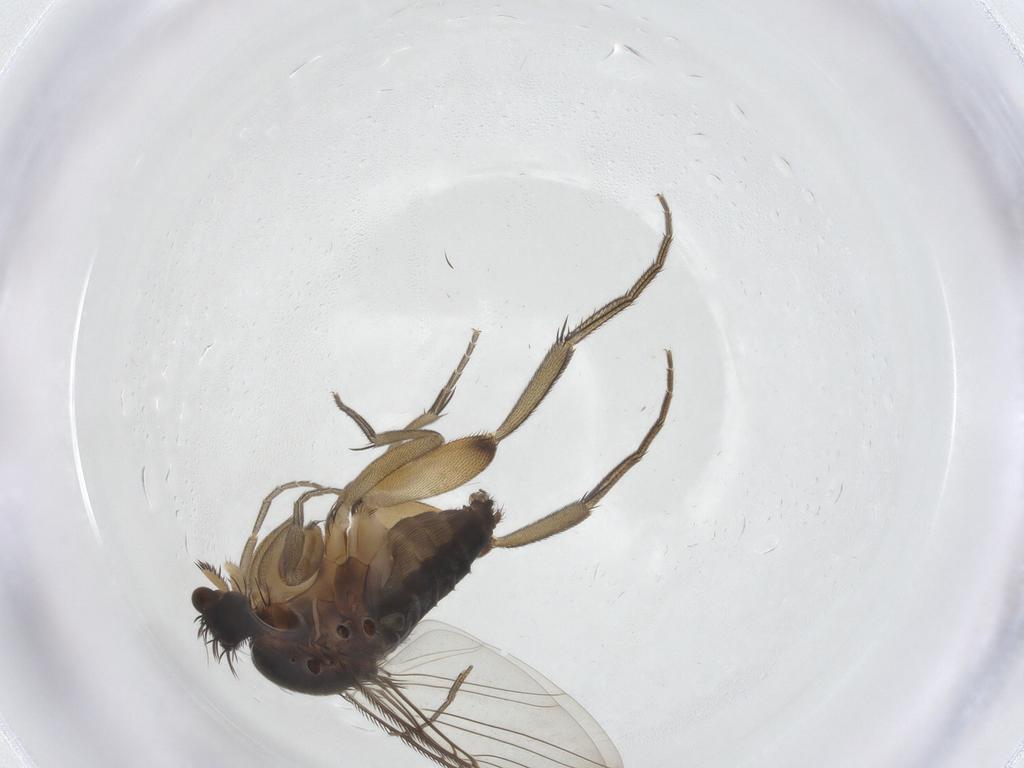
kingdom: Animalia
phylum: Arthropoda
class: Insecta
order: Diptera
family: Phoridae
